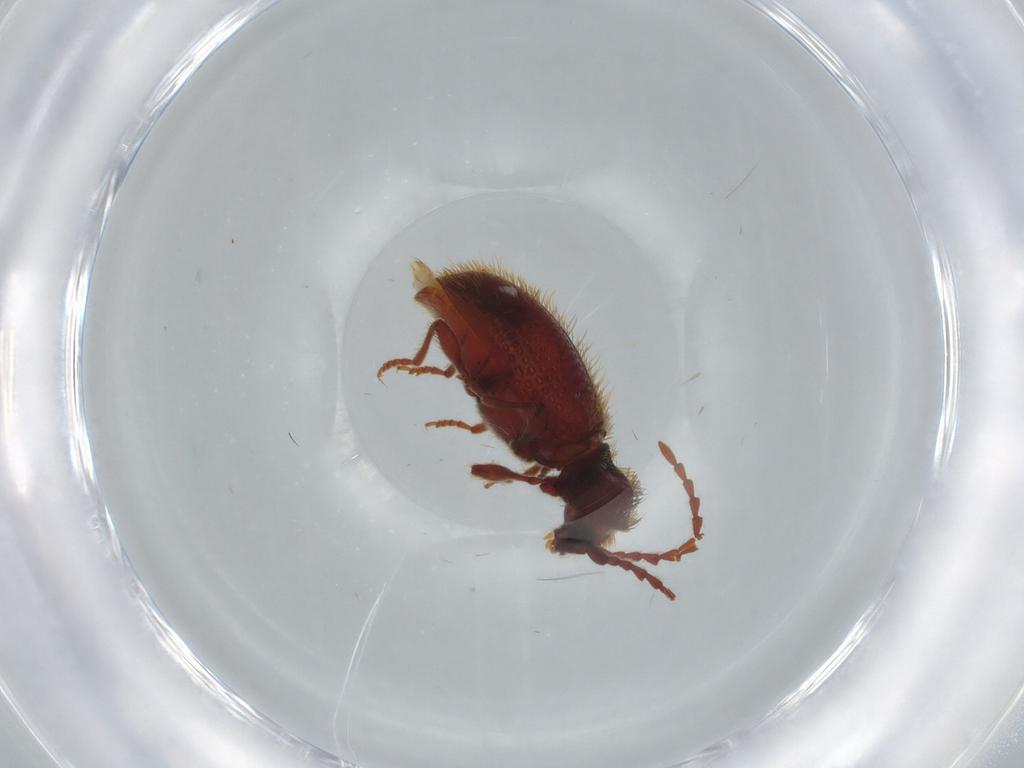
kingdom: Animalia
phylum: Arthropoda
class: Insecta
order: Coleoptera
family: Ptinidae
